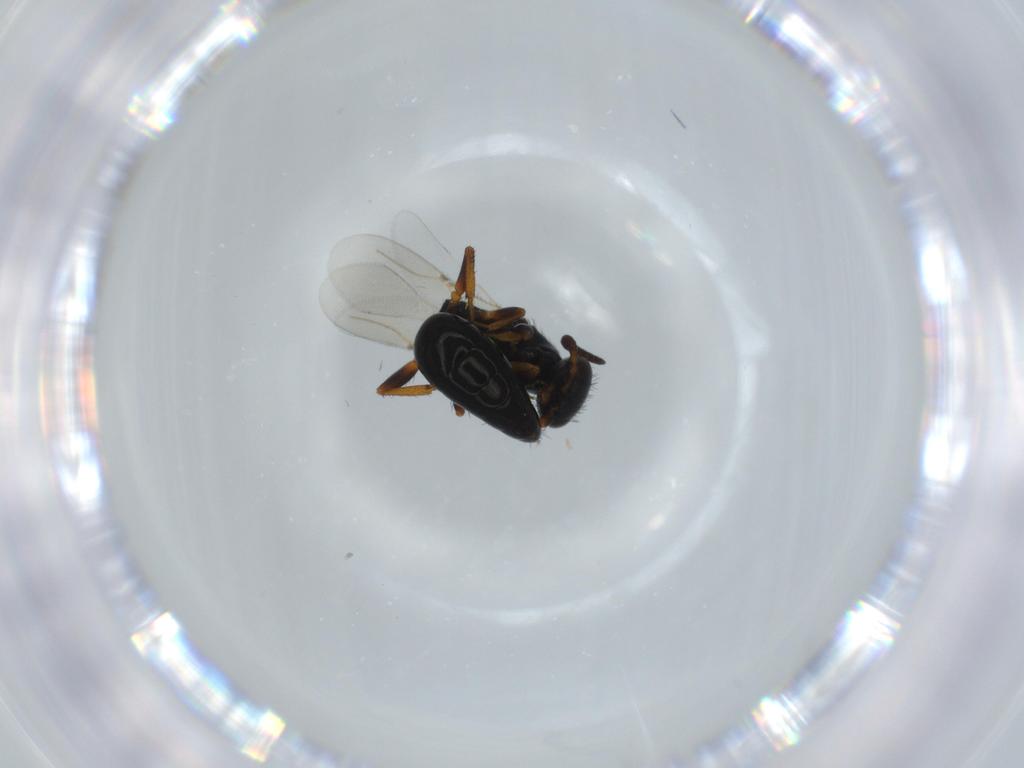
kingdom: Animalia
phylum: Arthropoda
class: Insecta
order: Hymenoptera
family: Bethylidae
